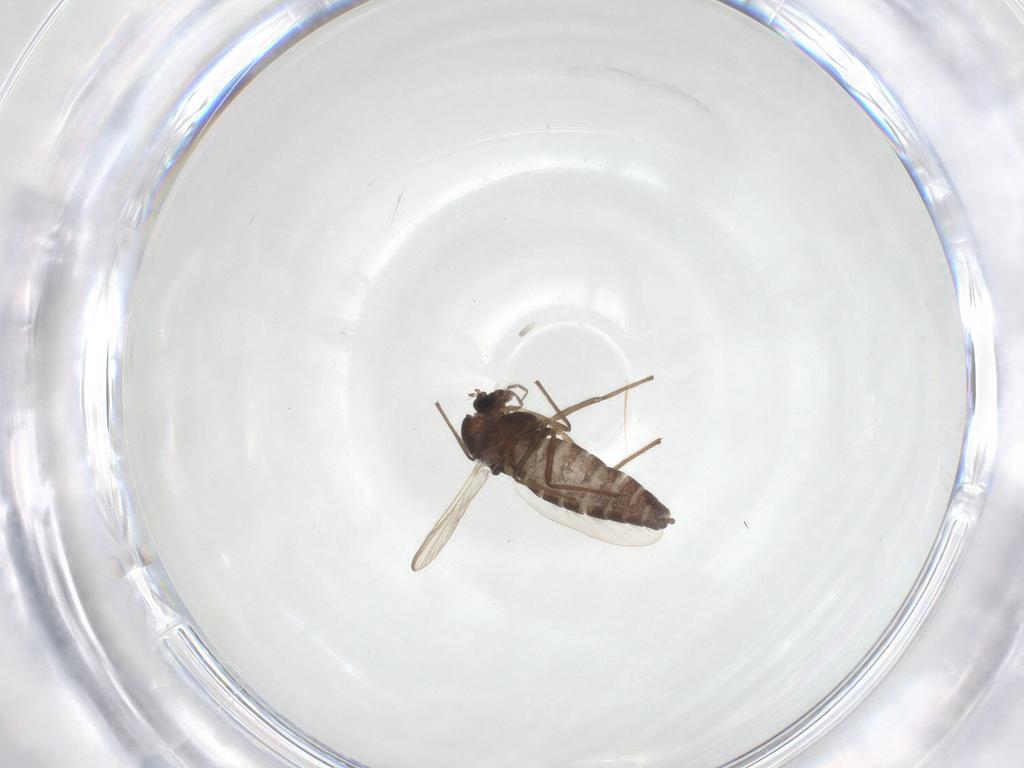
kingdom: Animalia
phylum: Arthropoda
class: Insecta
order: Diptera
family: Chironomidae
